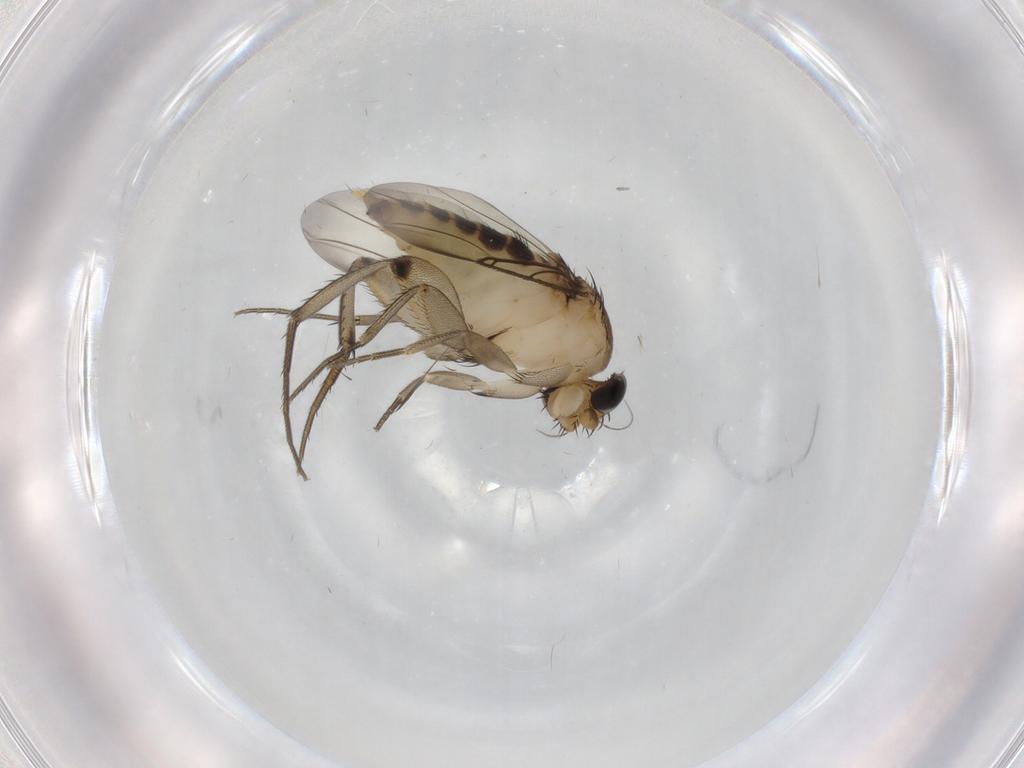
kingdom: Animalia
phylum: Arthropoda
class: Insecta
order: Diptera
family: Phoridae
